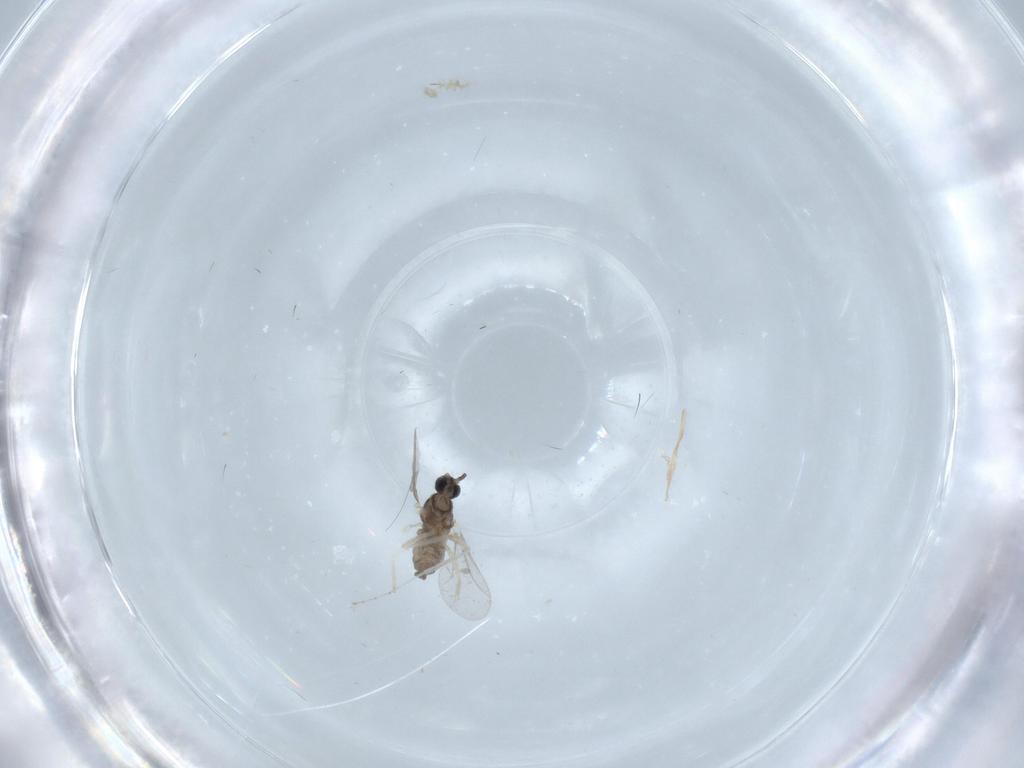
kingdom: Animalia
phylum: Arthropoda
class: Insecta
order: Diptera
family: Cecidomyiidae
